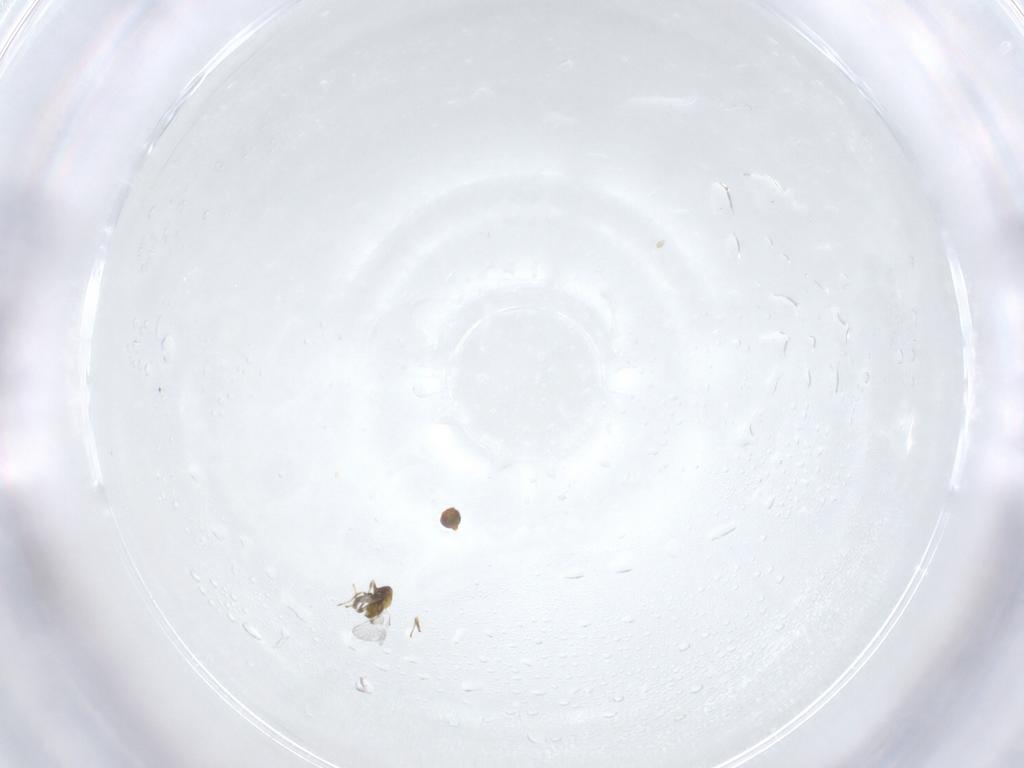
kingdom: Animalia
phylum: Arthropoda
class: Insecta
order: Hymenoptera
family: Trichogrammatidae
